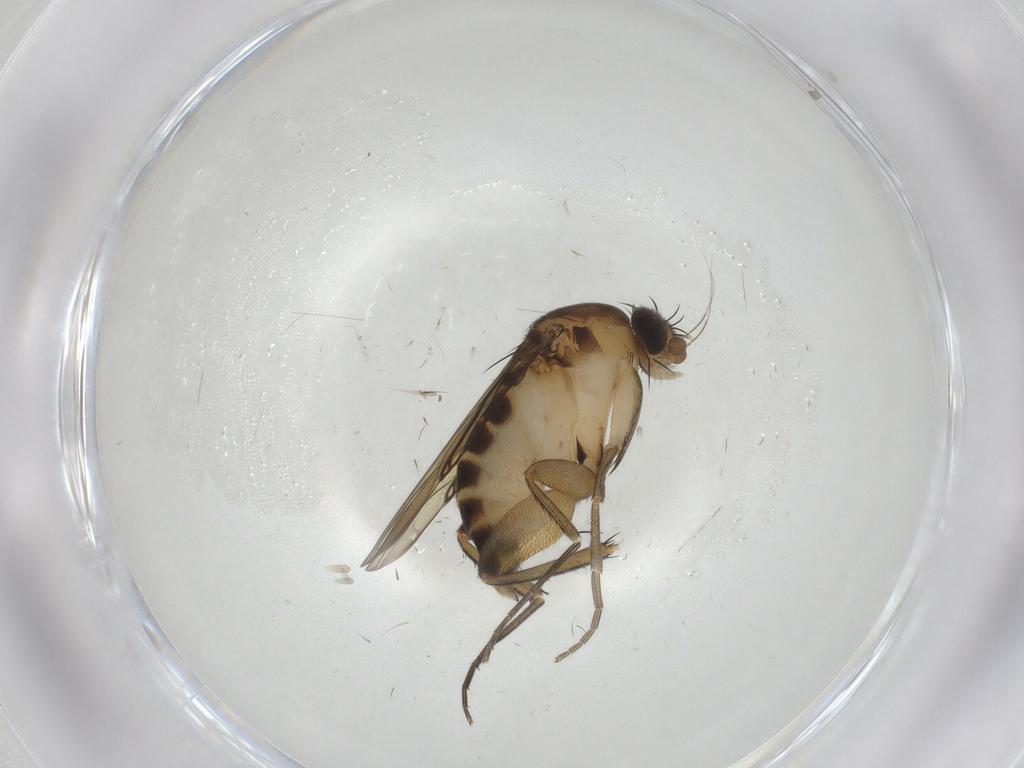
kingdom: Animalia
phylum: Arthropoda
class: Insecta
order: Diptera
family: Phoridae
